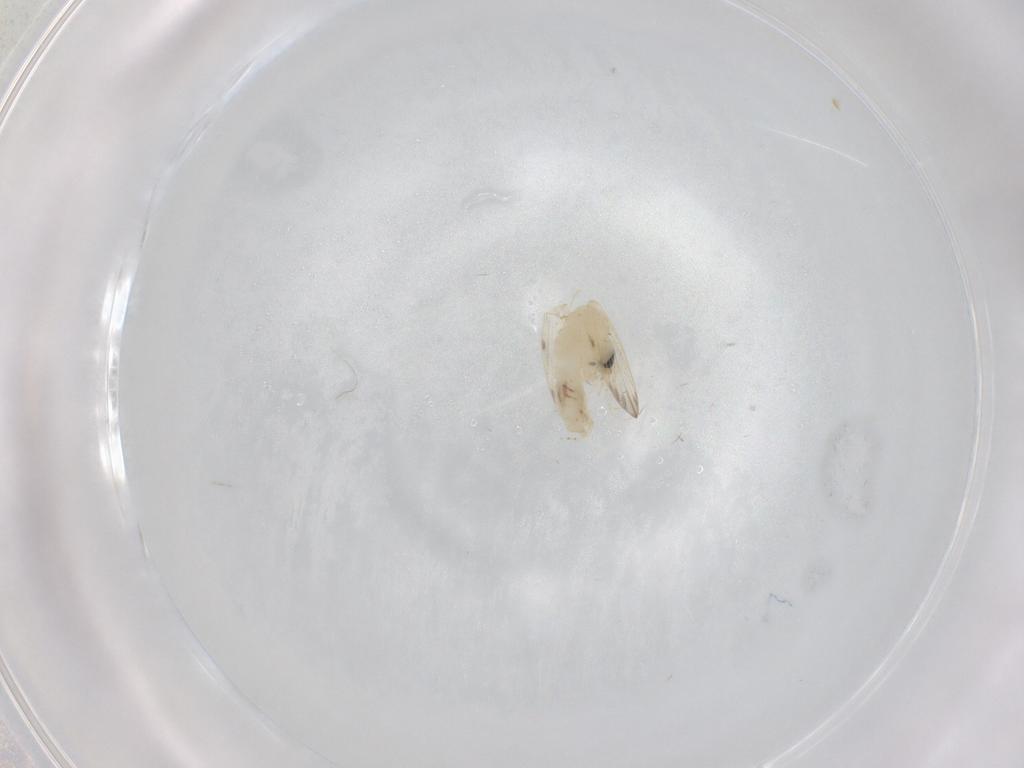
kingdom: Animalia
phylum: Arthropoda
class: Insecta
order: Diptera
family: Psychodidae
